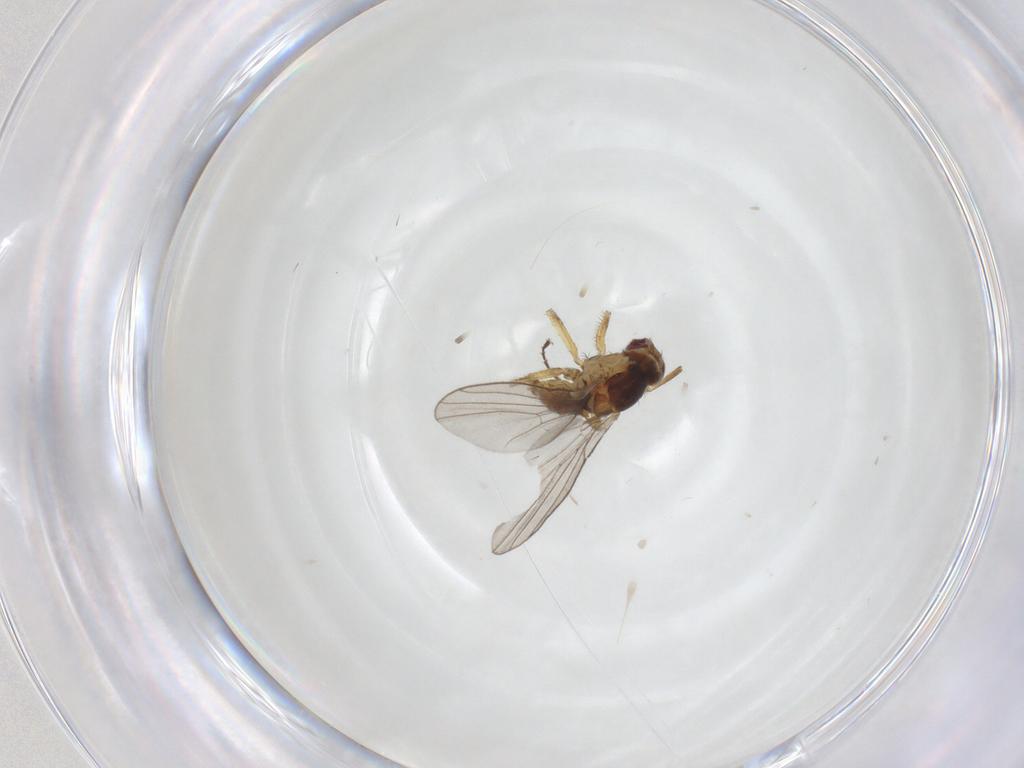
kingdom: Animalia
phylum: Arthropoda
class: Insecta
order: Diptera
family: Agromyzidae
